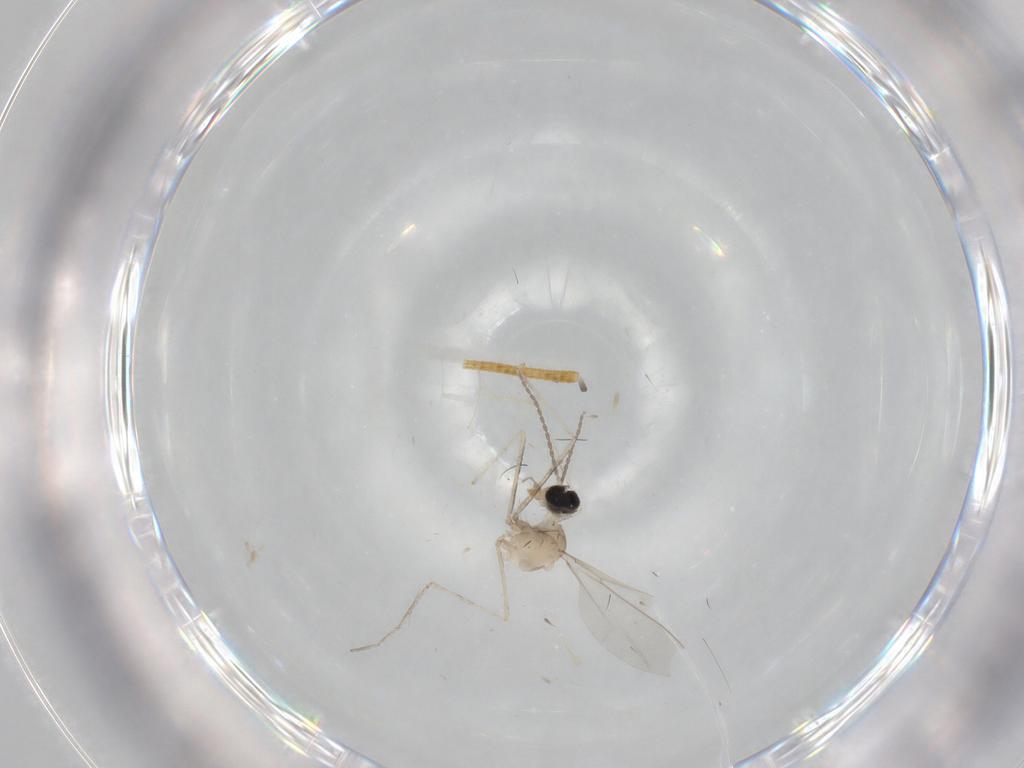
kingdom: Animalia
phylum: Arthropoda
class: Insecta
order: Diptera
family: Cecidomyiidae
